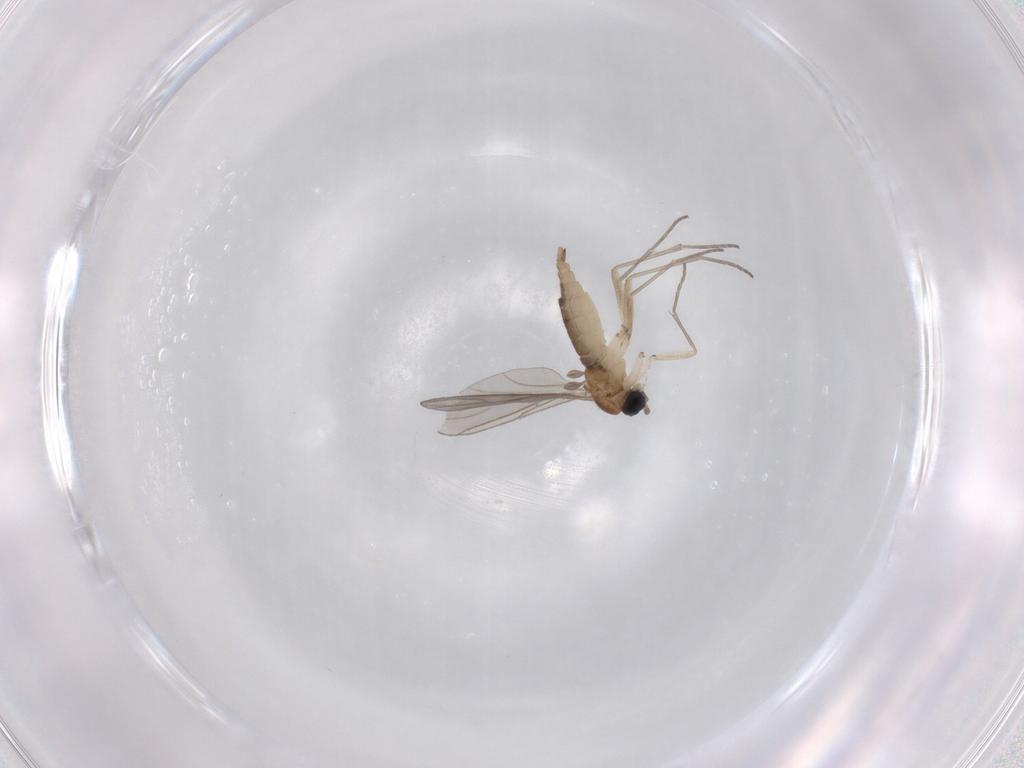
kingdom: Animalia
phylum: Arthropoda
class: Insecta
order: Diptera
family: Sciaridae
